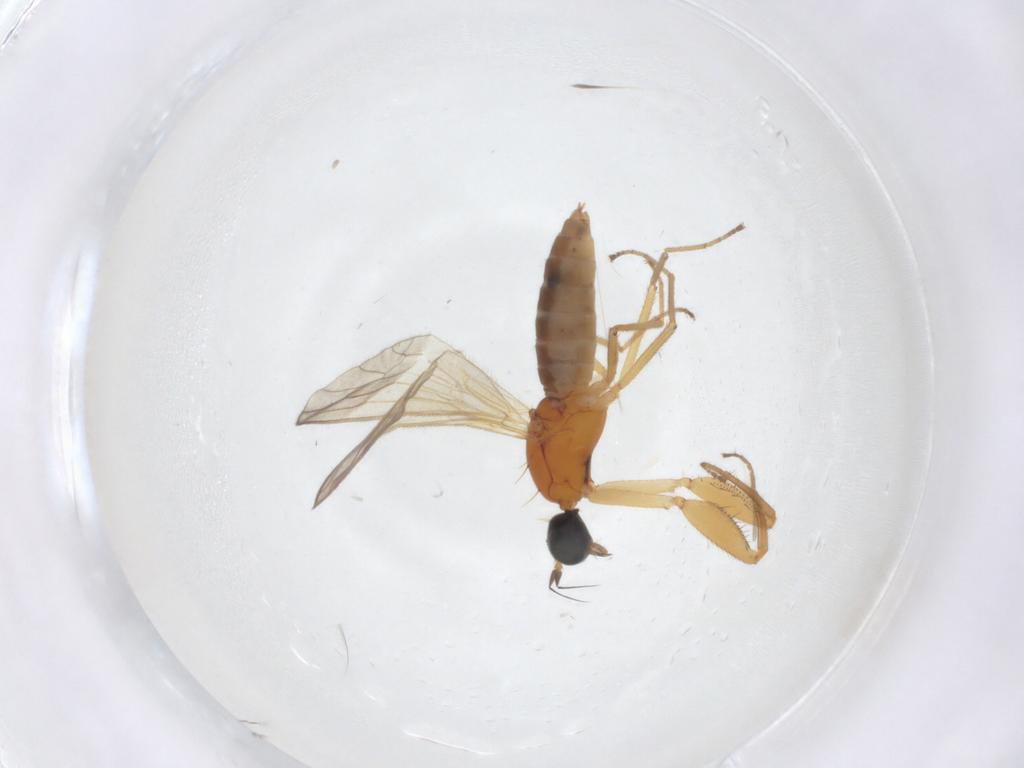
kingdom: Animalia
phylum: Arthropoda
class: Insecta
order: Diptera
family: Empididae
